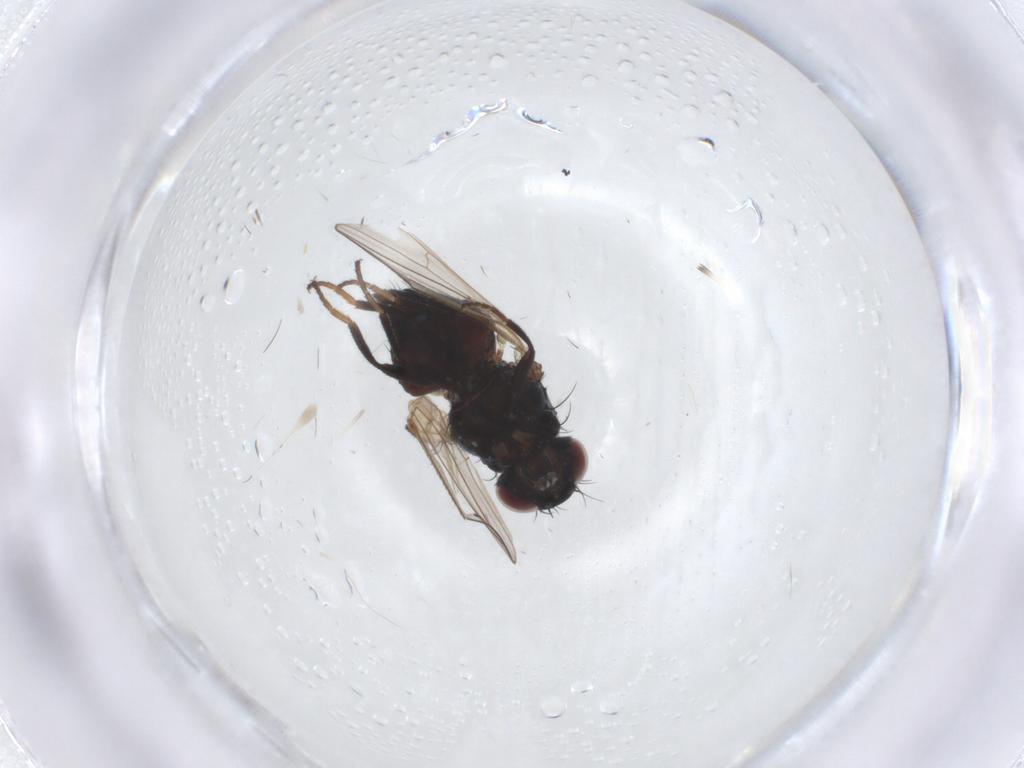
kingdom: Animalia
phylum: Arthropoda
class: Insecta
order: Diptera
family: Carnidae
